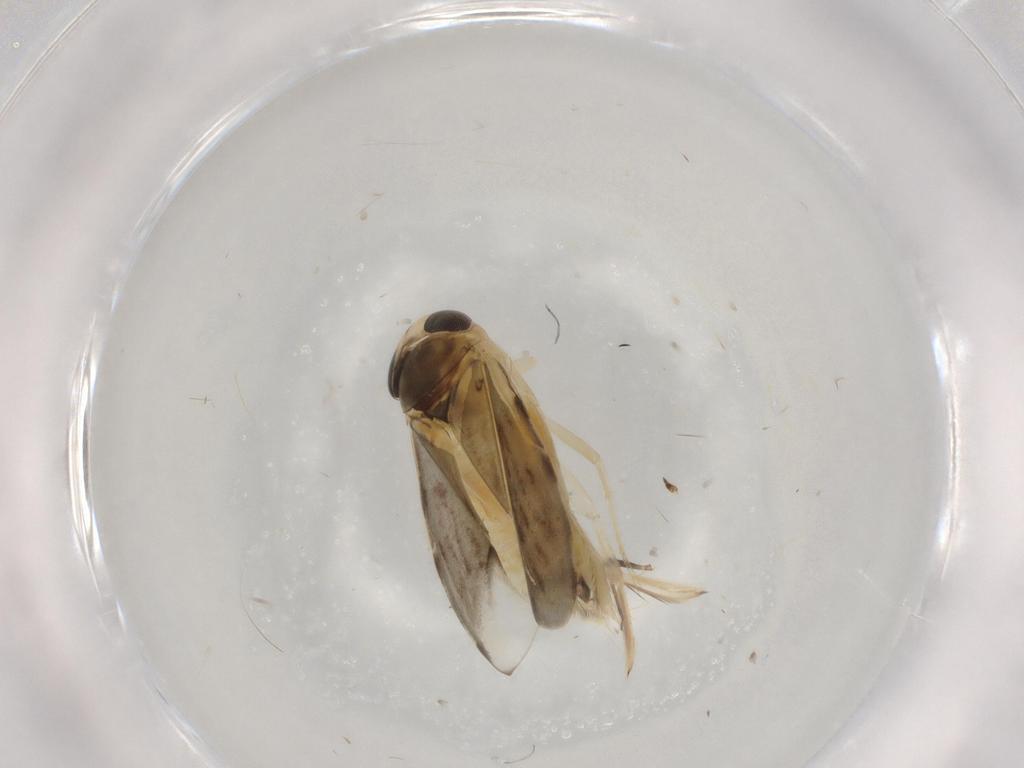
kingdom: Animalia
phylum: Arthropoda
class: Insecta
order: Hemiptera
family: Corixidae
